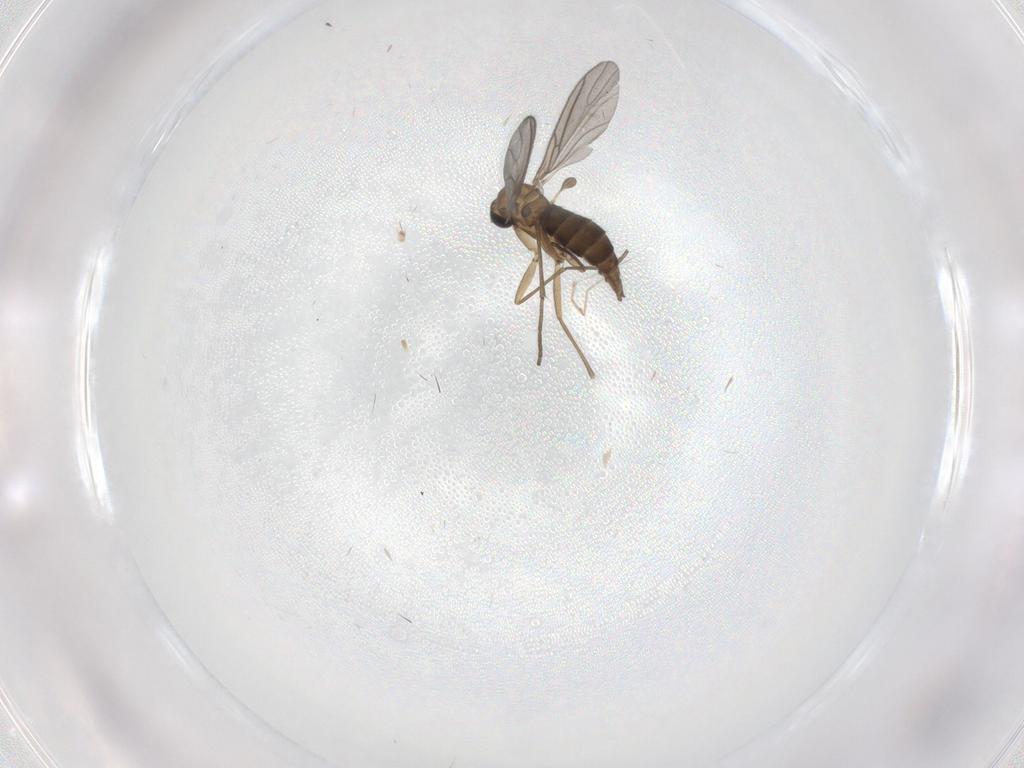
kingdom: Animalia
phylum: Arthropoda
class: Insecta
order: Diptera
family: Sciaridae
